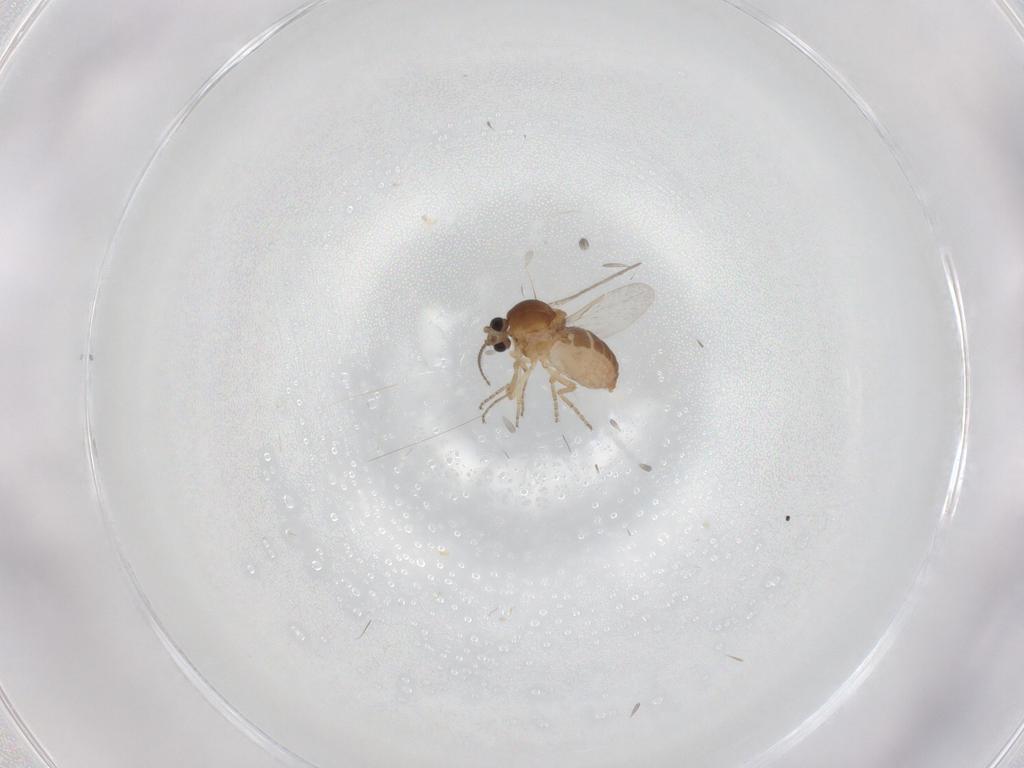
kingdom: Animalia
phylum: Arthropoda
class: Insecta
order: Diptera
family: Ceratopogonidae
